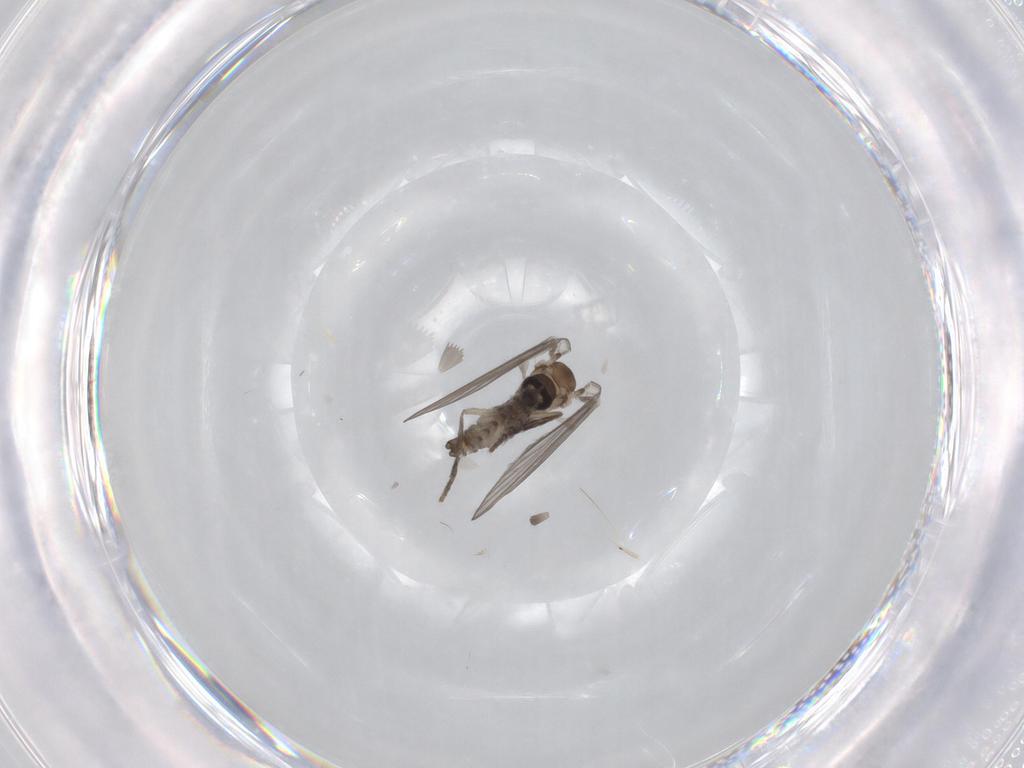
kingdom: Animalia
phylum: Arthropoda
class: Insecta
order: Diptera
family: Psychodidae
